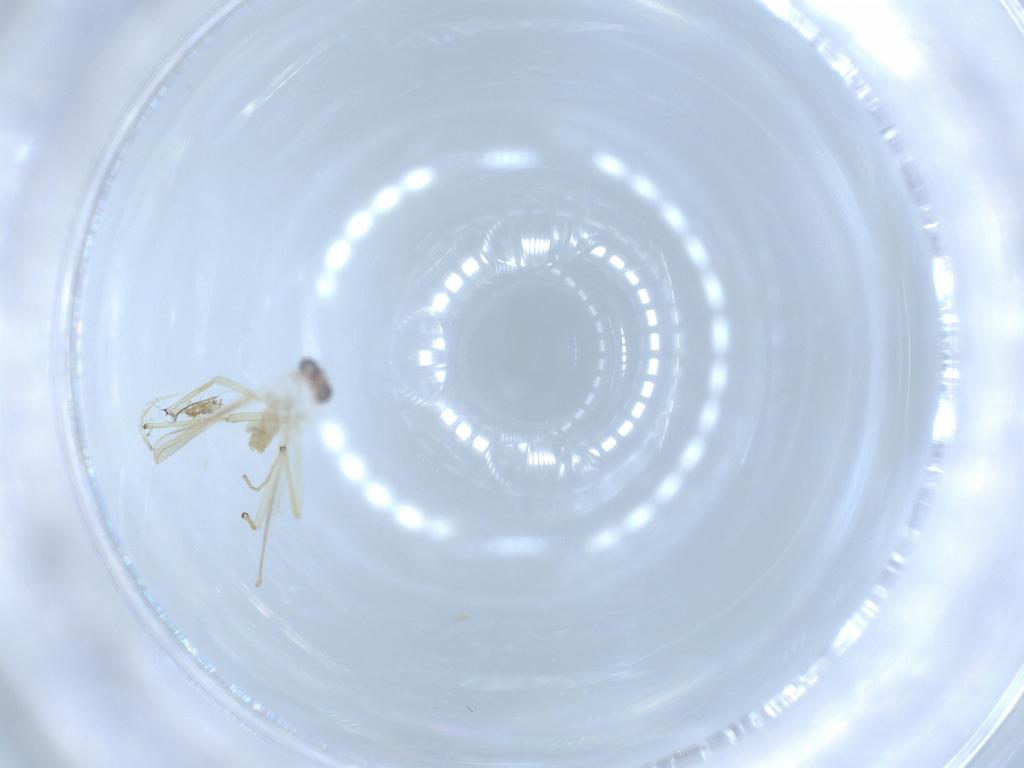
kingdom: Animalia
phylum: Arthropoda
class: Insecta
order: Diptera
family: Chironomidae
